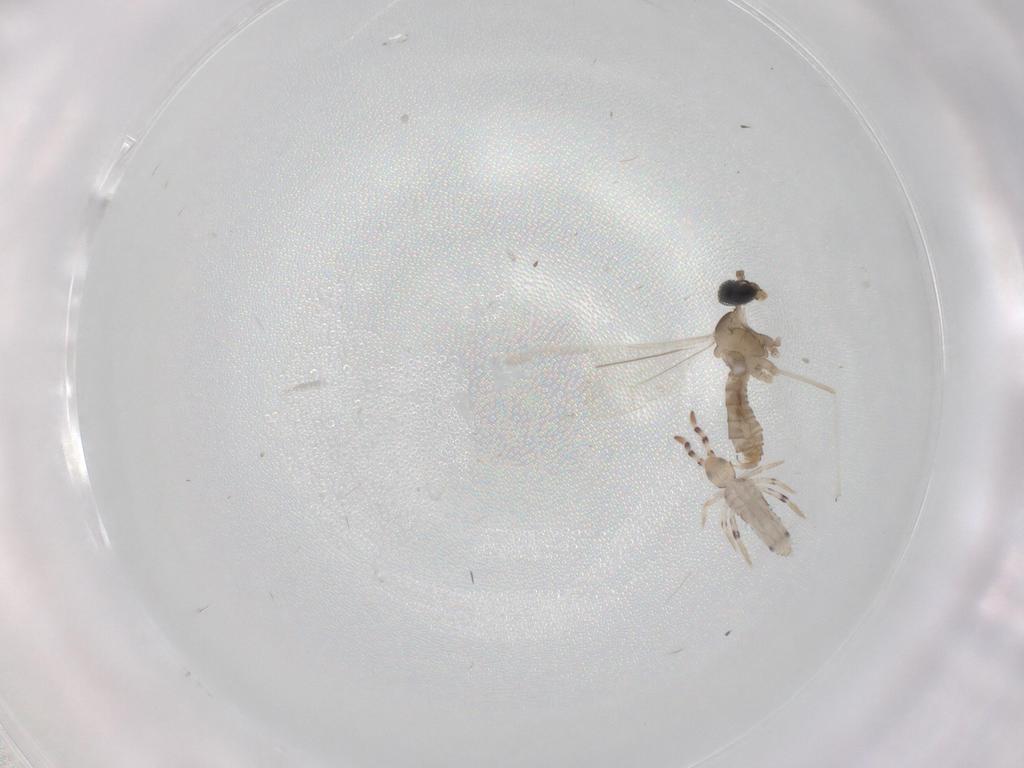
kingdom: Animalia
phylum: Arthropoda
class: Collembola
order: Entomobryomorpha
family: Entomobryidae
